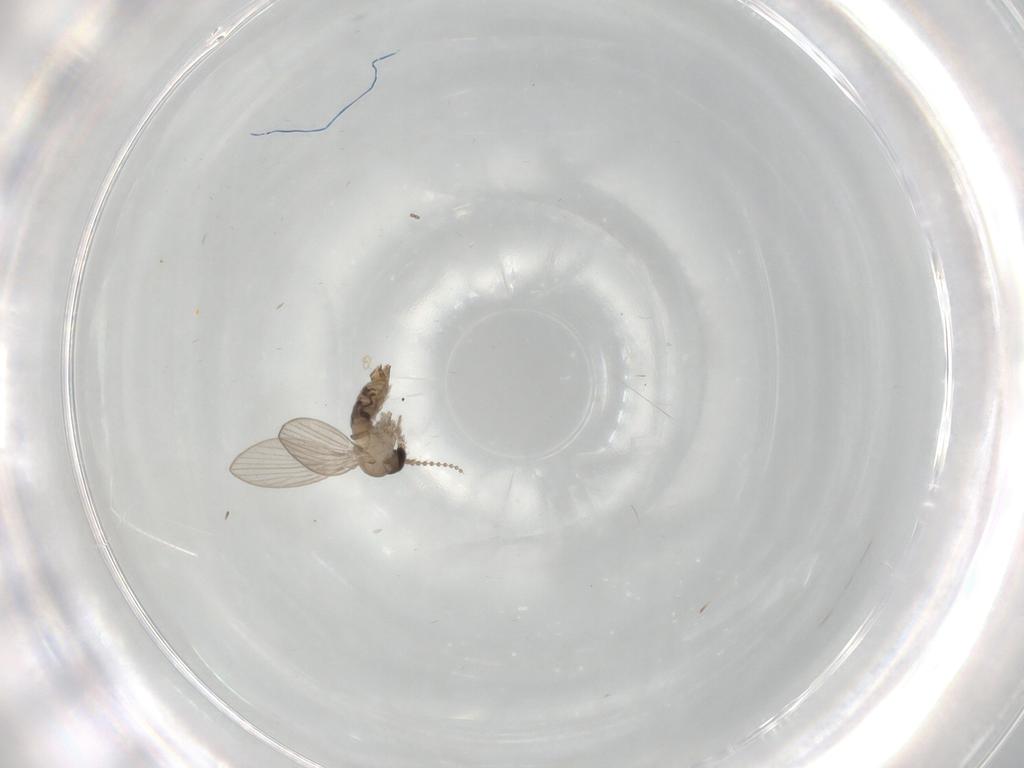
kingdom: Animalia
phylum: Arthropoda
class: Insecta
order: Diptera
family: Psychodidae
